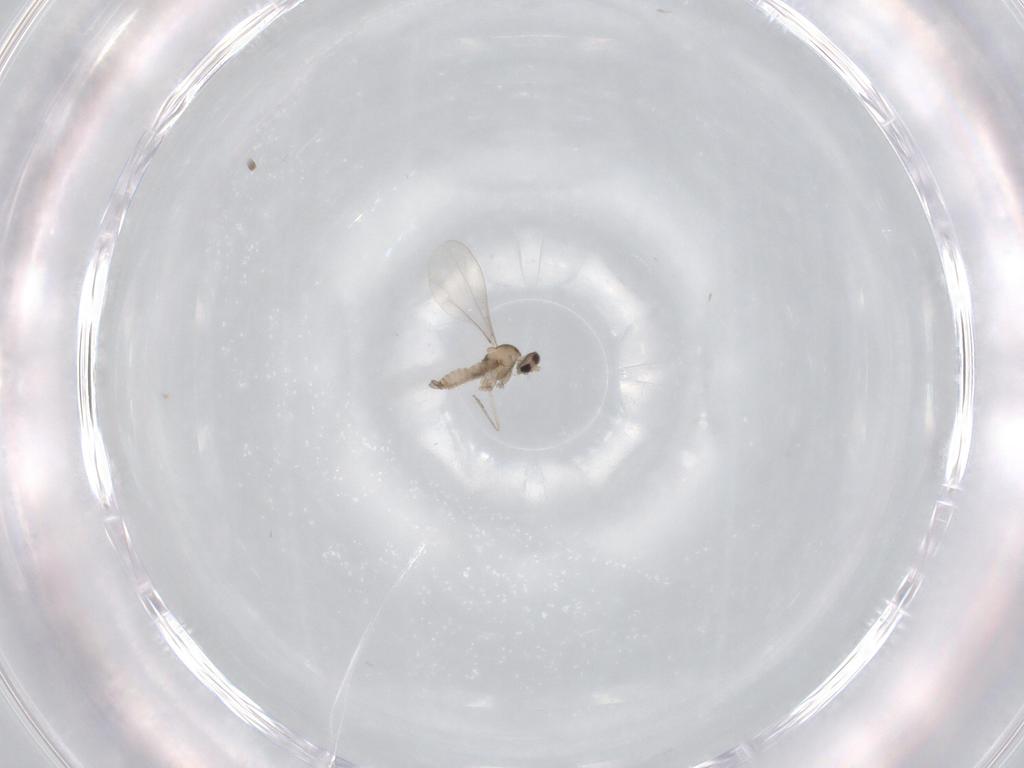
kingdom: Animalia
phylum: Arthropoda
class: Insecta
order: Diptera
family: Cecidomyiidae
